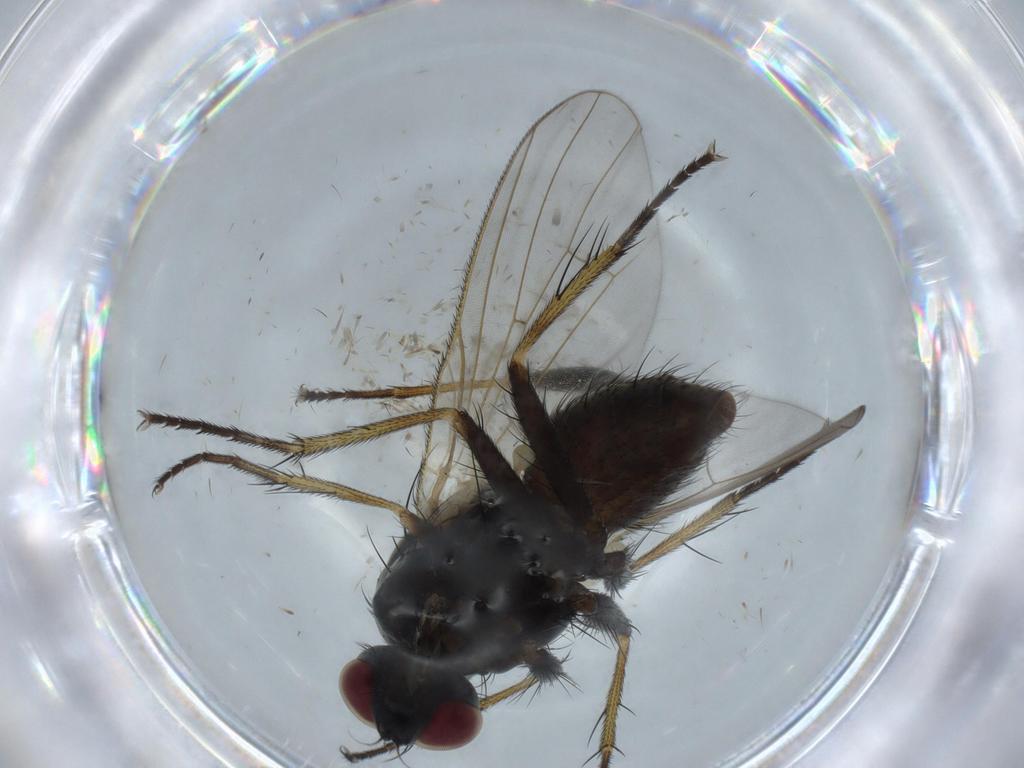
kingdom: Animalia
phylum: Arthropoda
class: Insecta
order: Diptera
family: Muscidae
